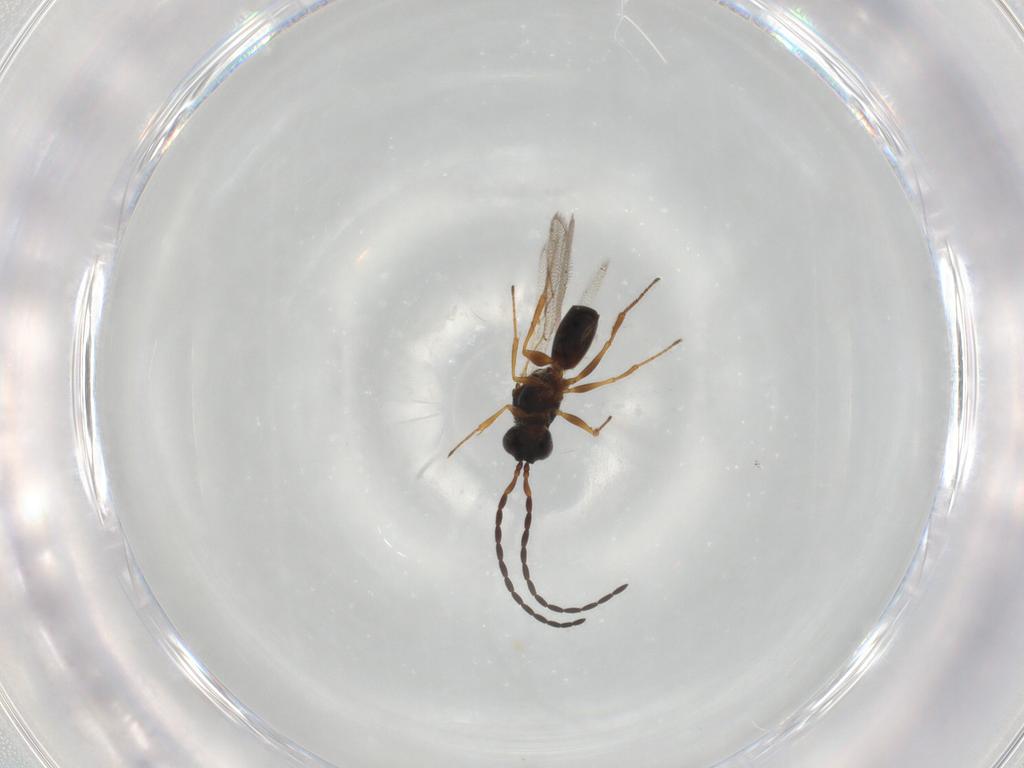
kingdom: Animalia
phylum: Arthropoda
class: Insecta
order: Hymenoptera
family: Figitidae
